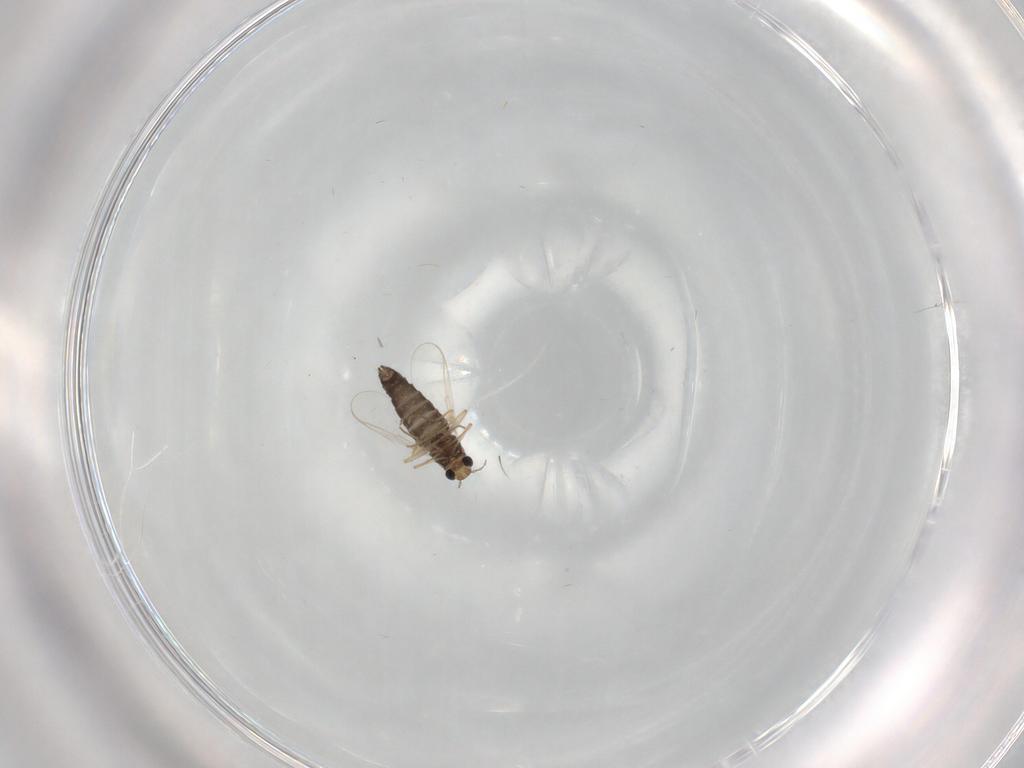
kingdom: Animalia
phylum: Arthropoda
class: Insecta
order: Diptera
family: Chironomidae
